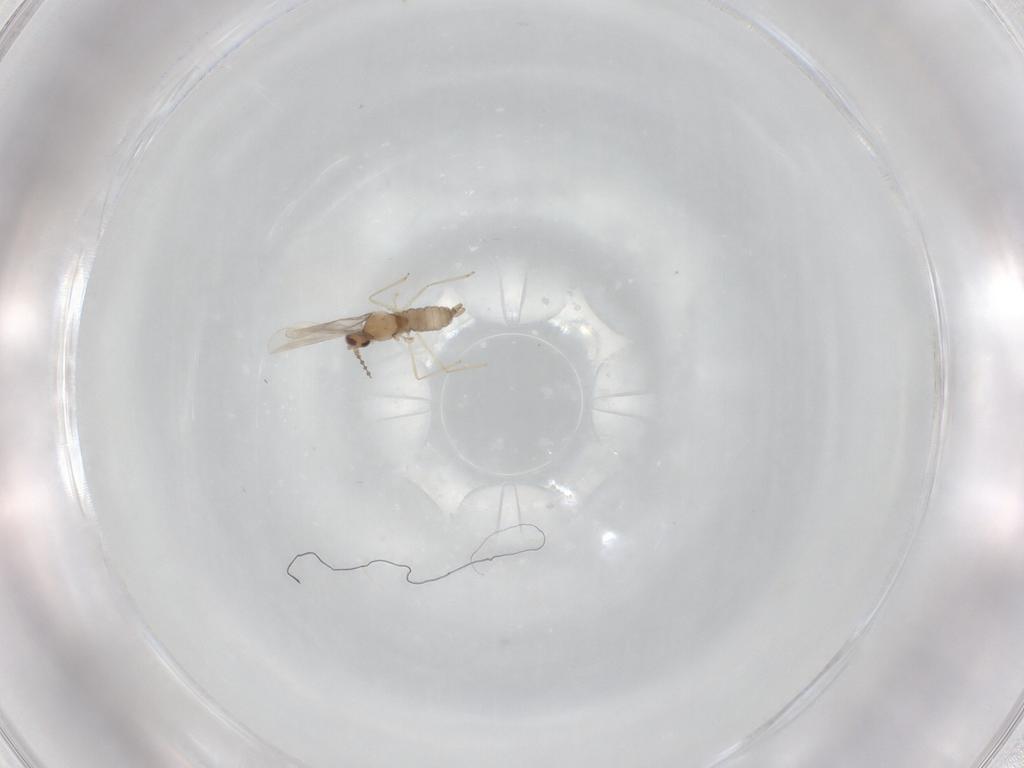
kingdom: Animalia
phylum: Arthropoda
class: Insecta
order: Diptera
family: Cecidomyiidae
